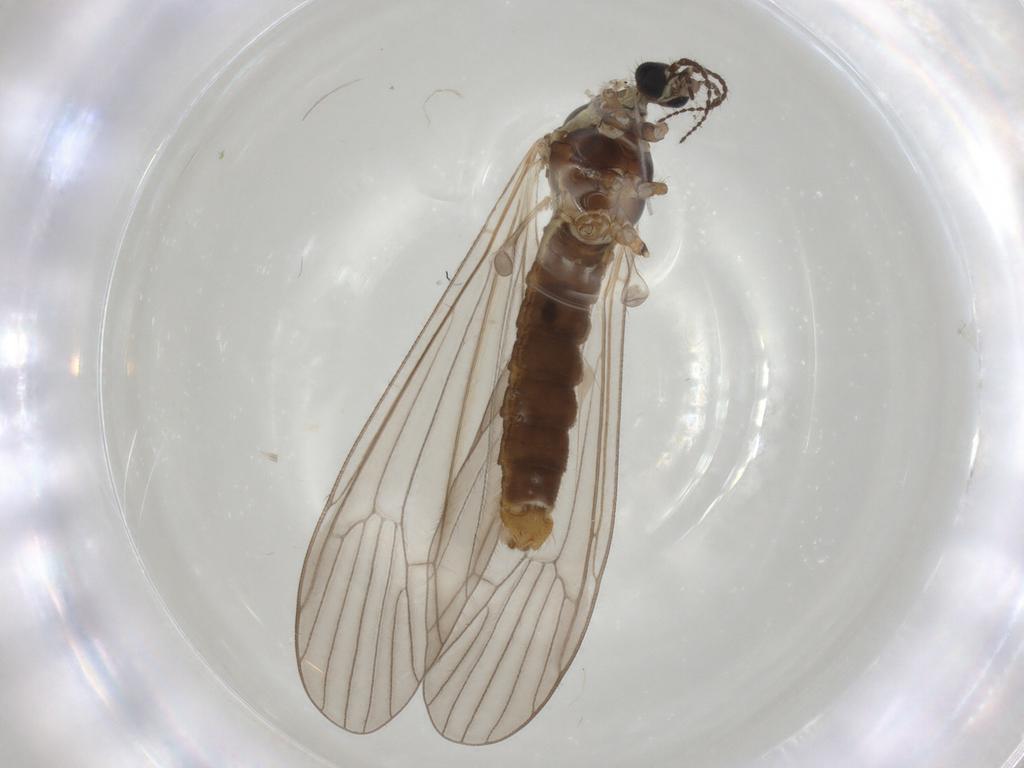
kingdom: Animalia
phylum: Arthropoda
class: Insecta
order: Diptera
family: Limoniidae
